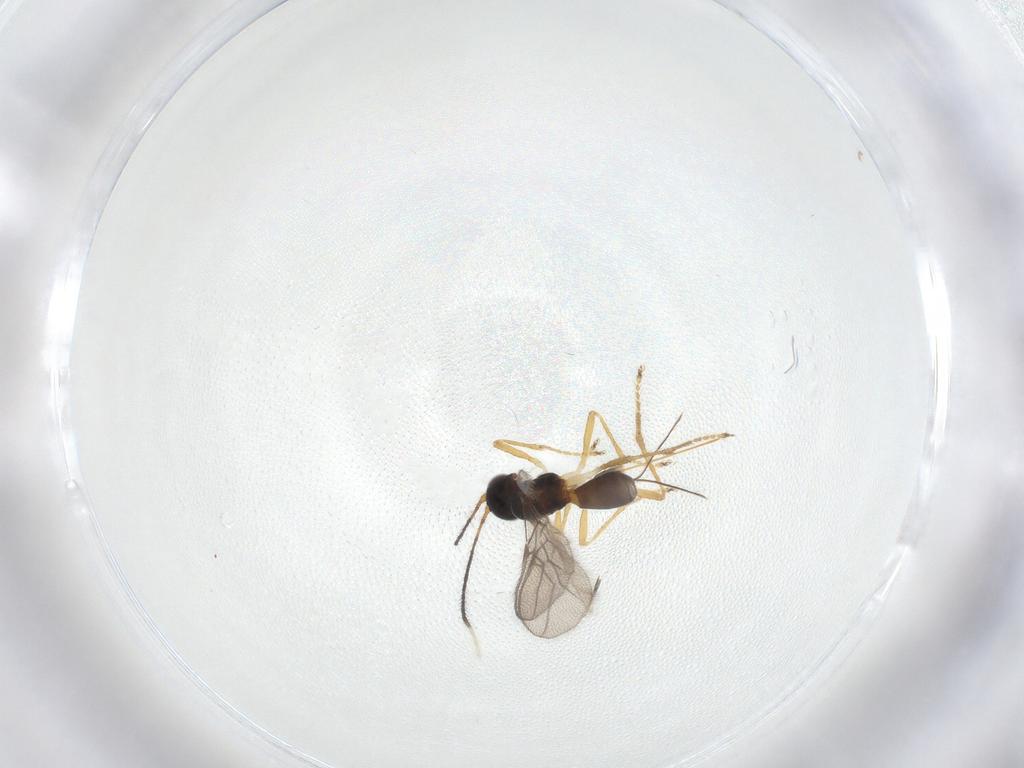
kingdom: Animalia
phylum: Arthropoda
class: Insecta
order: Hymenoptera
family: Braconidae
